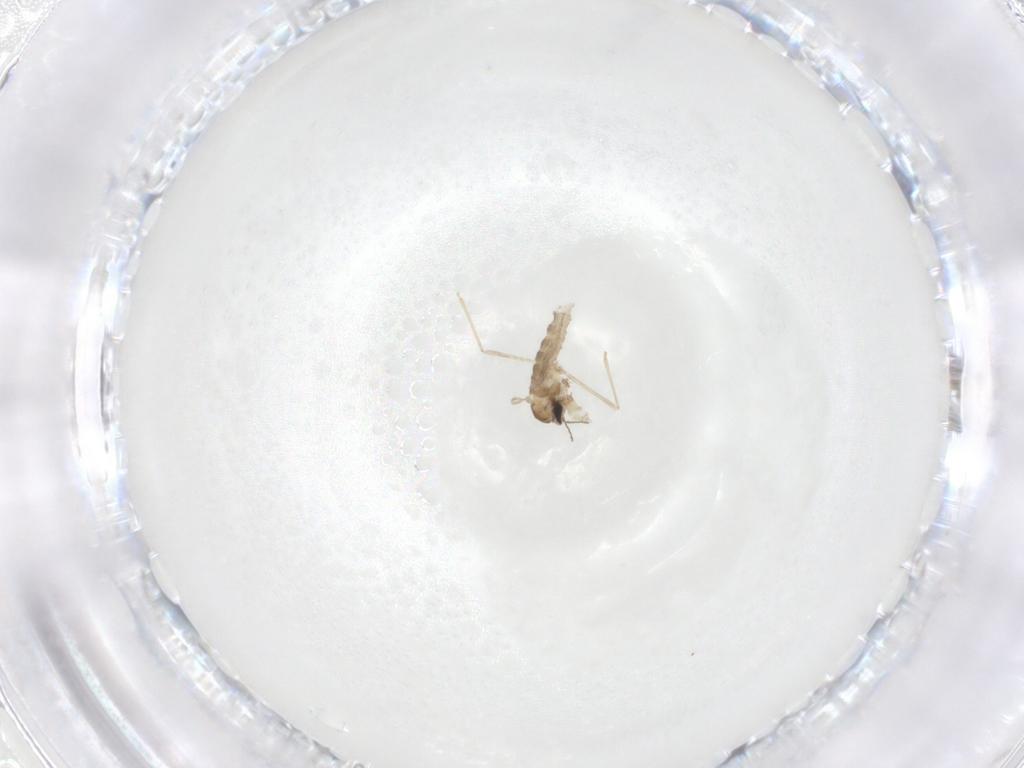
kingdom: Animalia
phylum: Arthropoda
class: Insecta
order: Diptera
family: Cecidomyiidae
